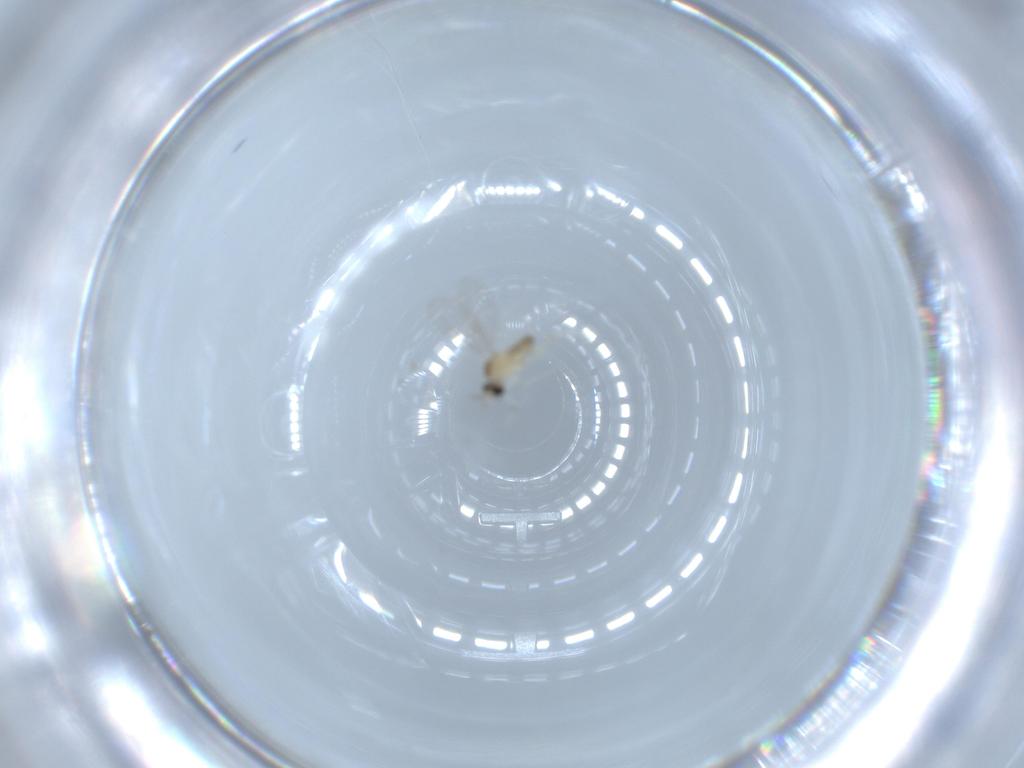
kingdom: Animalia
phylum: Arthropoda
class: Insecta
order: Diptera
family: Cecidomyiidae
